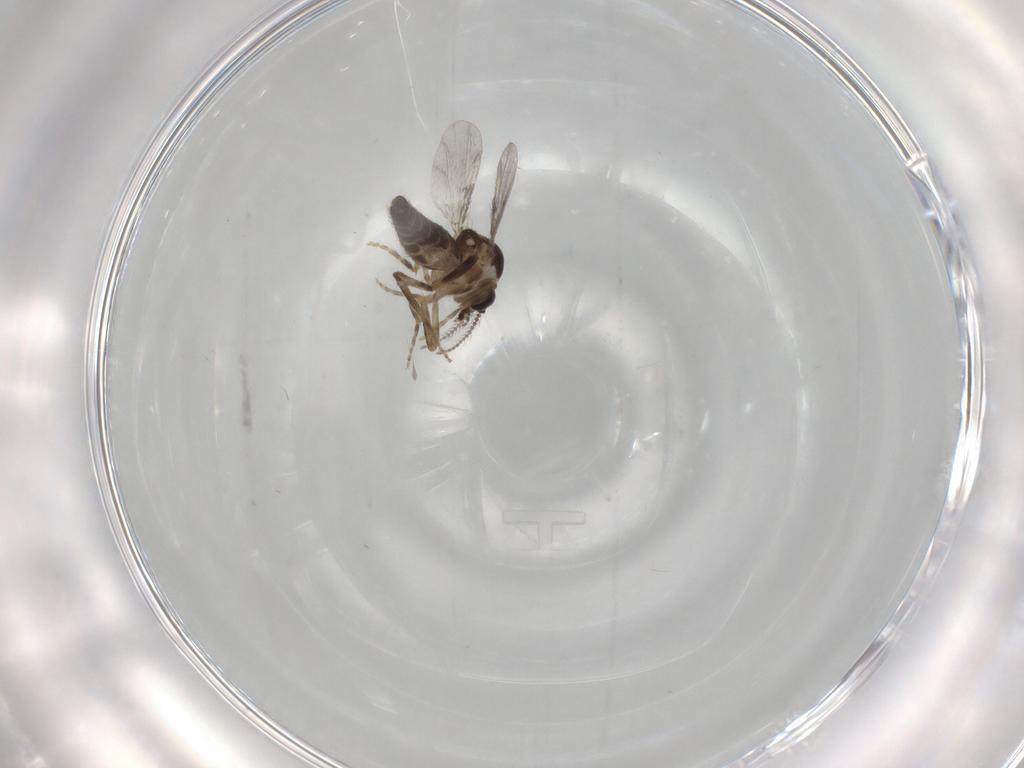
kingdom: Animalia
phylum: Arthropoda
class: Insecta
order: Diptera
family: Ceratopogonidae
